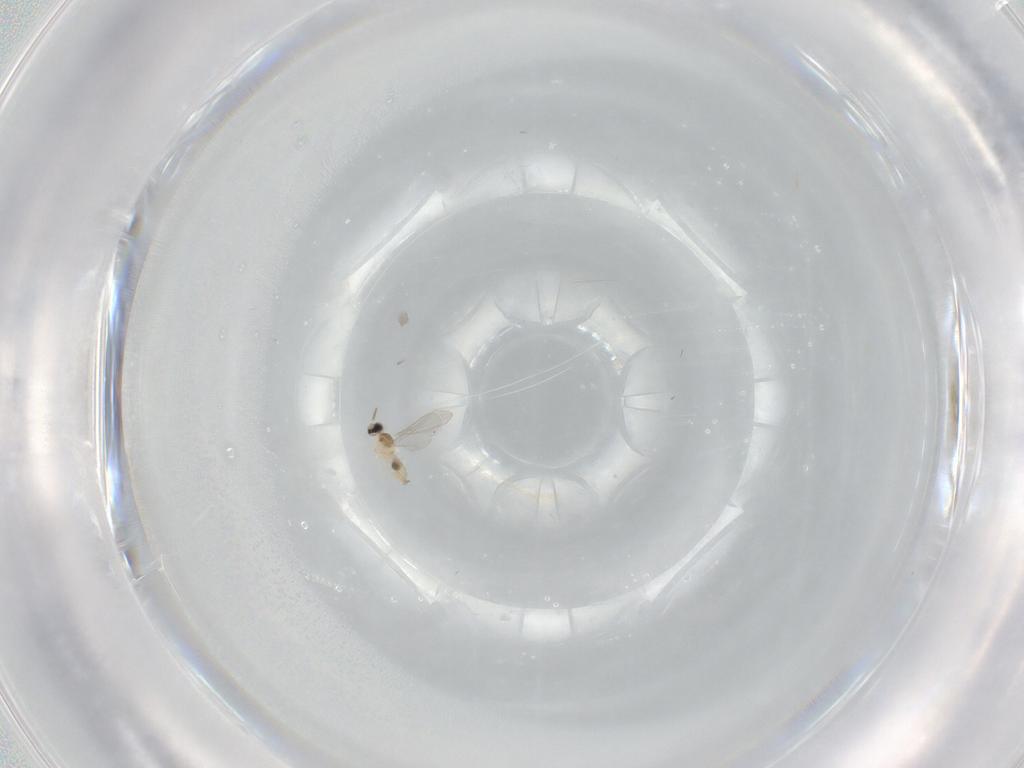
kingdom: Animalia
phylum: Arthropoda
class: Insecta
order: Diptera
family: Cecidomyiidae
